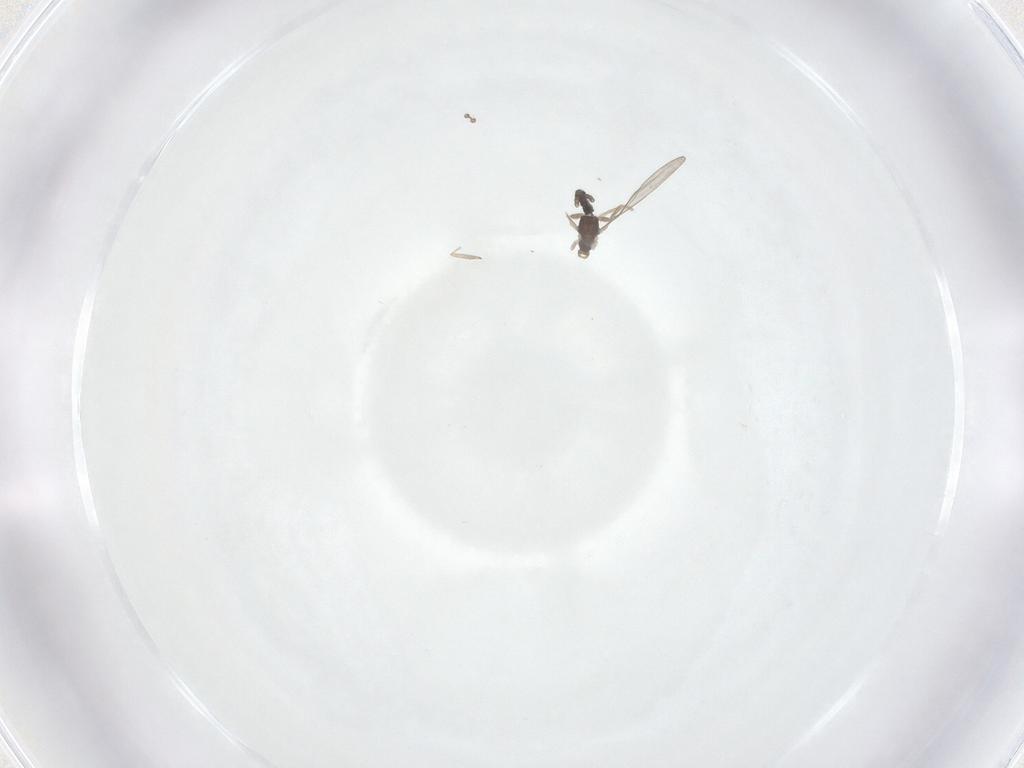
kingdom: Animalia
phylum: Arthropoda
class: Insecta
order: Diptera
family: Cecidomyiidae
